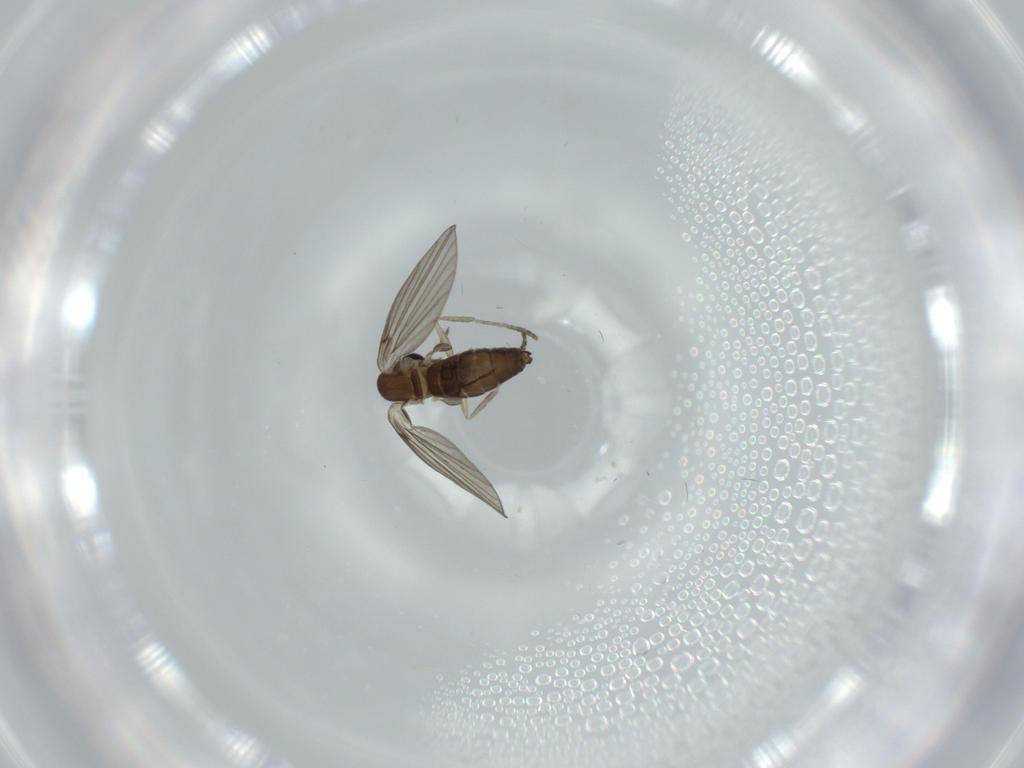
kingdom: Animalia
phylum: Arthropoda
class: Insecta
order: Diptera
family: Psychodidae
